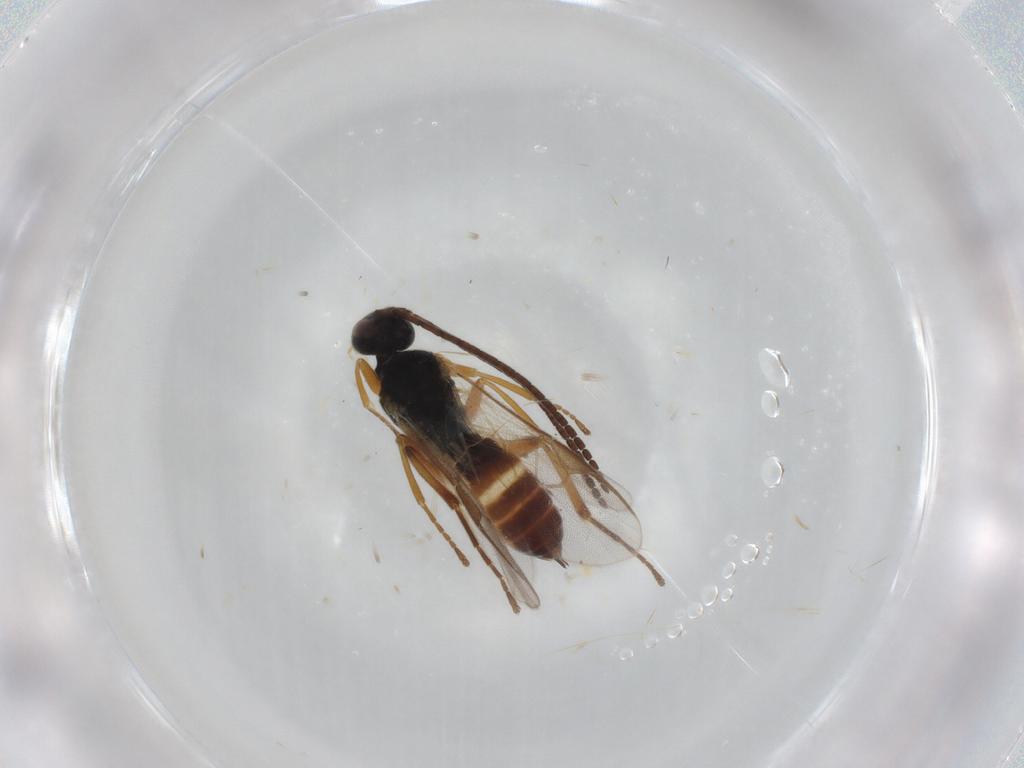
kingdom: Animalia
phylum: Arthropoda
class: Insecta
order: Hymenoptera
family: Braconidae
